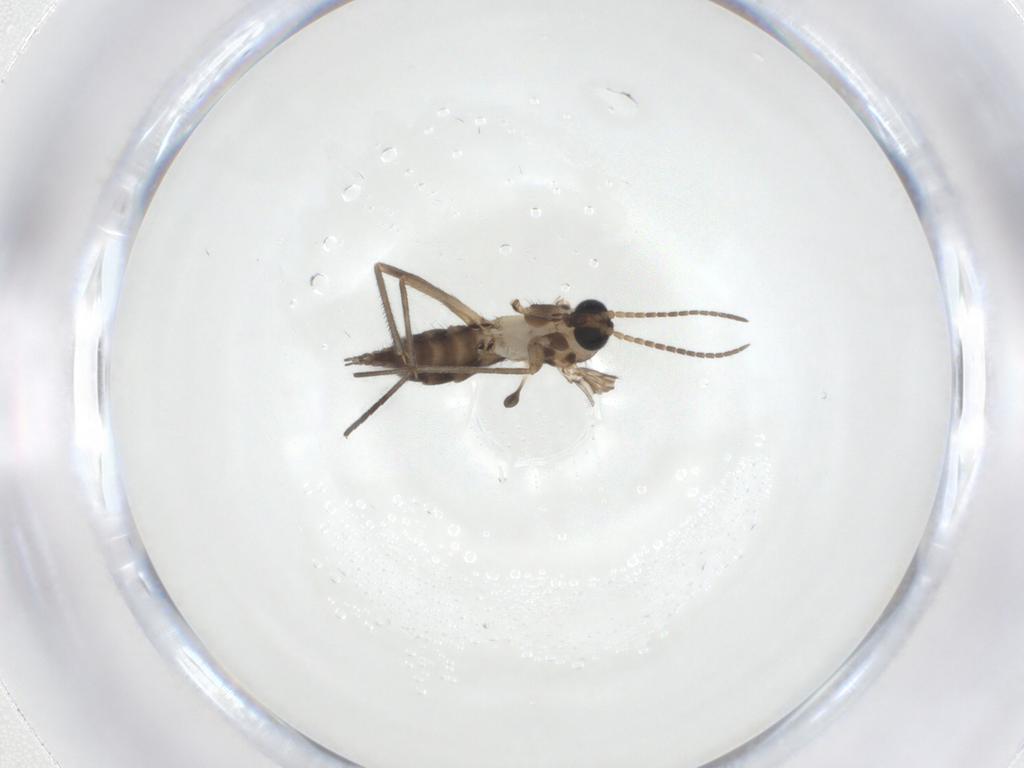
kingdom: Animalia
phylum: Arthropoda
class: Insecta
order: Diptera
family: Sciaridae
